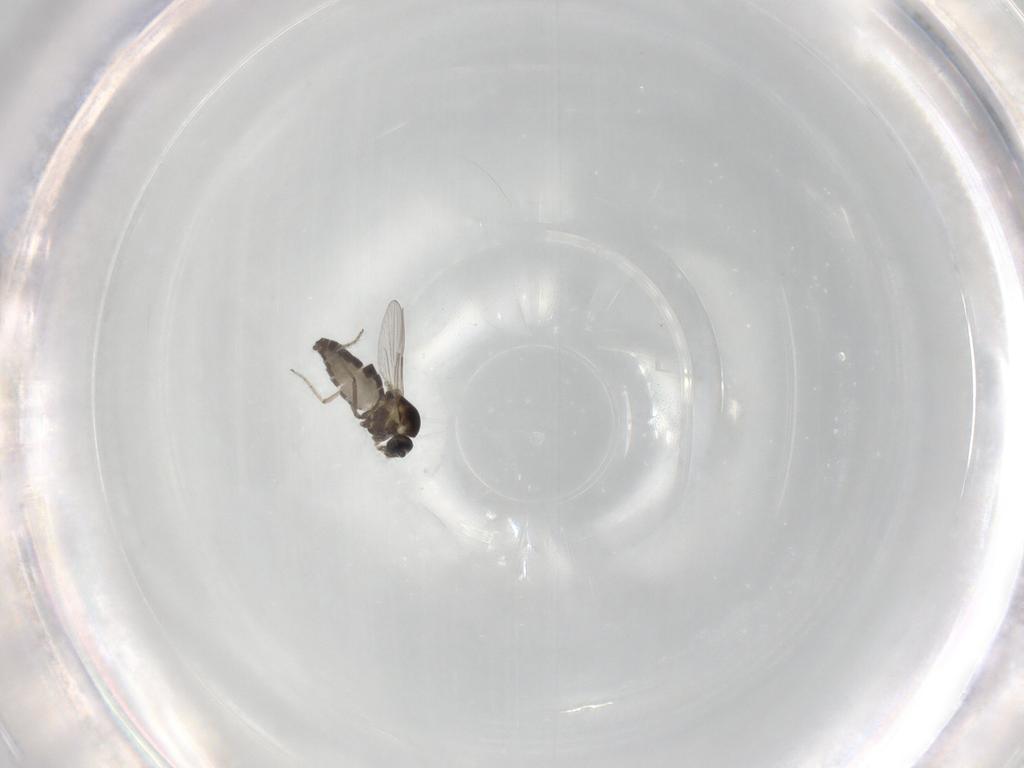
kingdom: Animalia
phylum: Arthropoda
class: Insecta
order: Diptera
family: Ceratopogonidae
